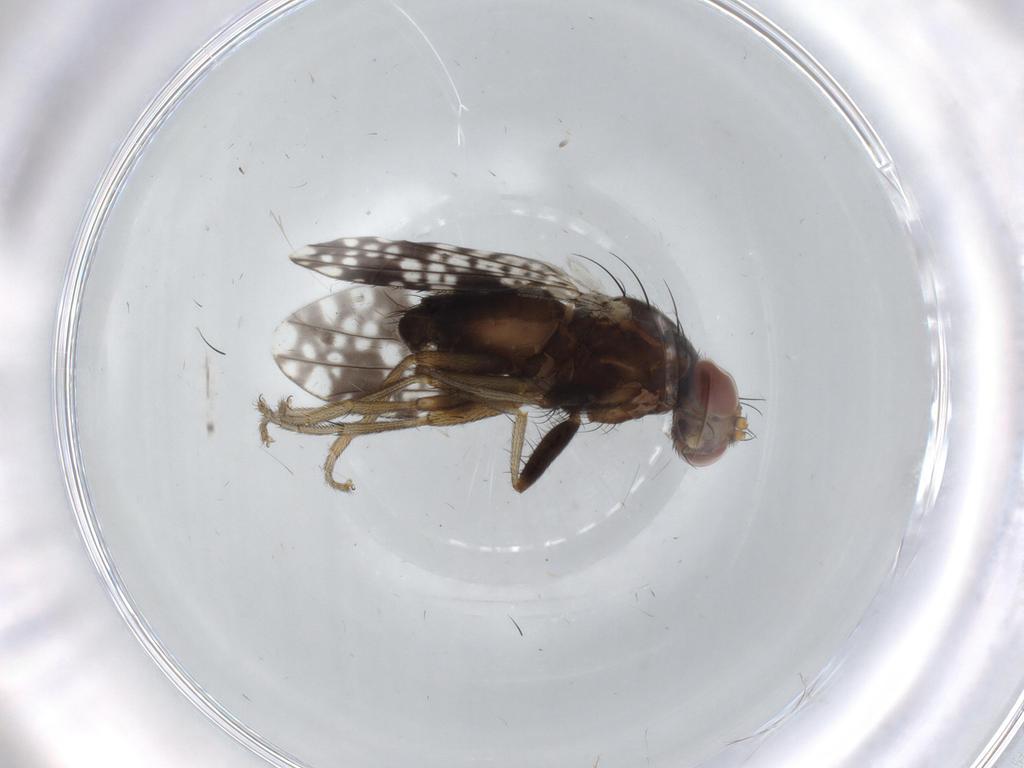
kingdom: Animalia
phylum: Arthropoda
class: Insecta
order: Diptera
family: Tephritidae
